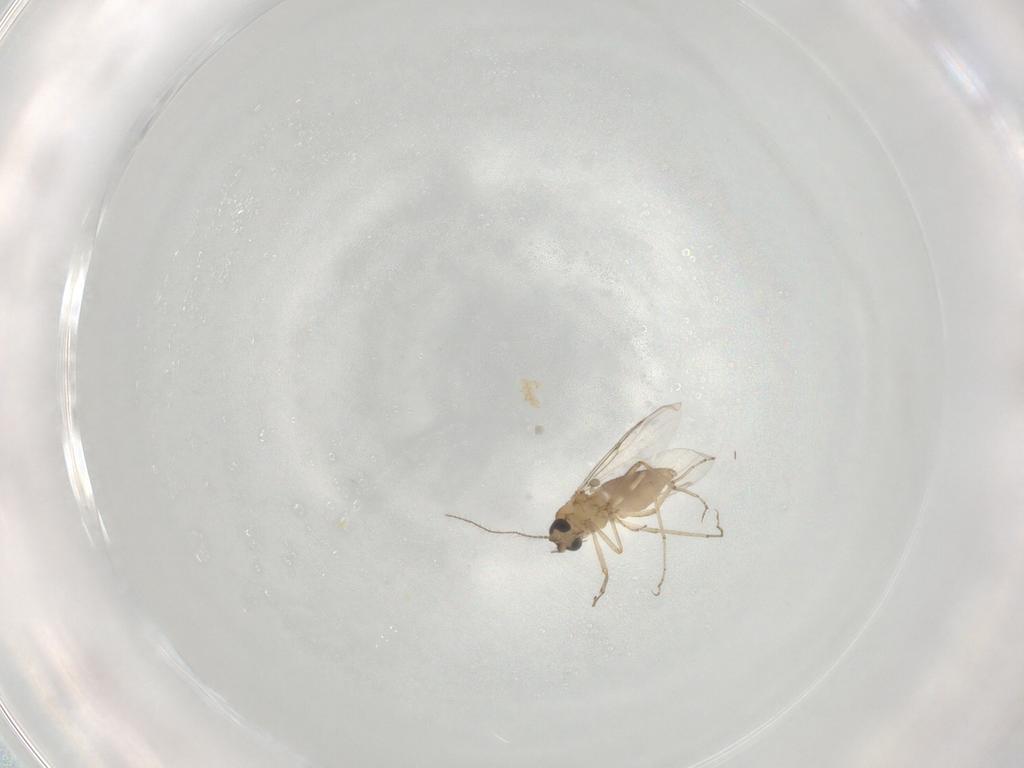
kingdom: Animalia
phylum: Arthropoda
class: Insecta
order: Diptera
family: Ceratopogonidae
